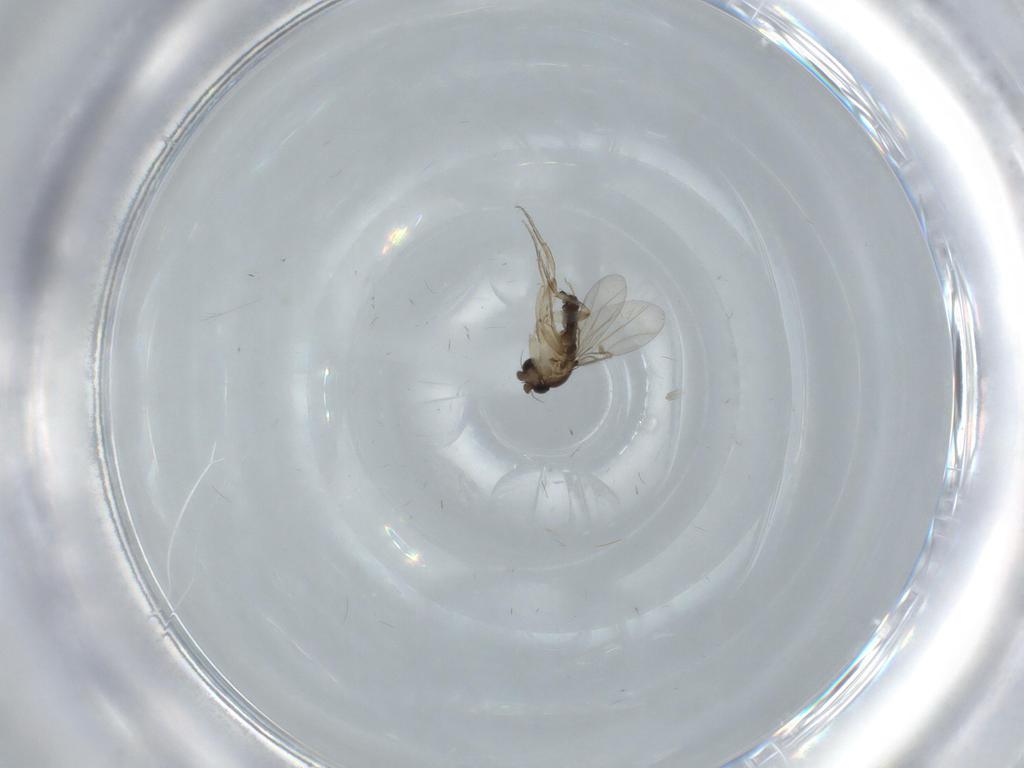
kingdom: Animalia
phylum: Arthropoda
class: Insecta
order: Diptera
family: Phoridae
